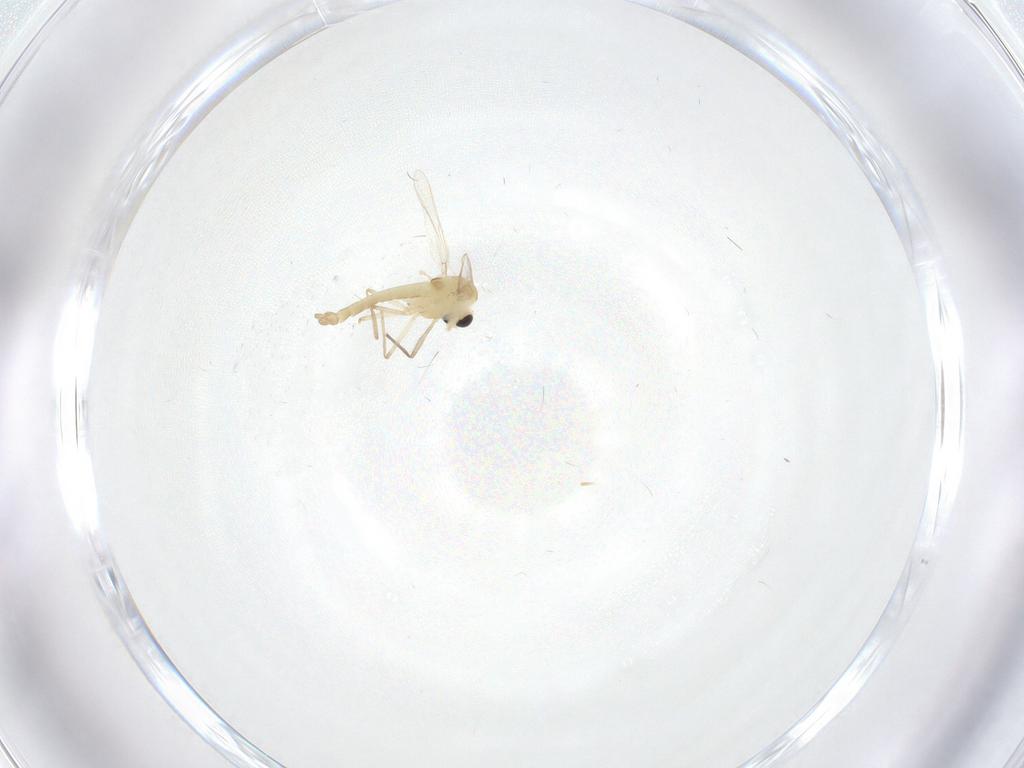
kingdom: Animalia
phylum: Arthropoda
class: Insecta
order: Diptera
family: Chironomidae
